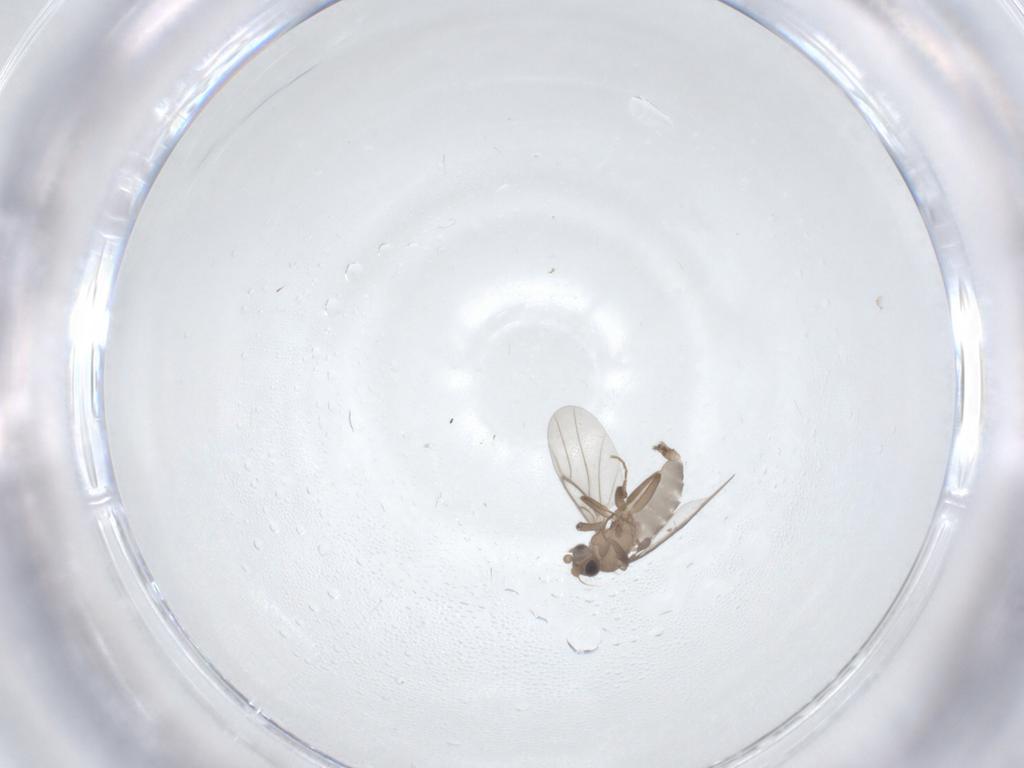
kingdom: Animalia
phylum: Arthropoda
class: Insecta
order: Diptera
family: Cecidomyiidae
